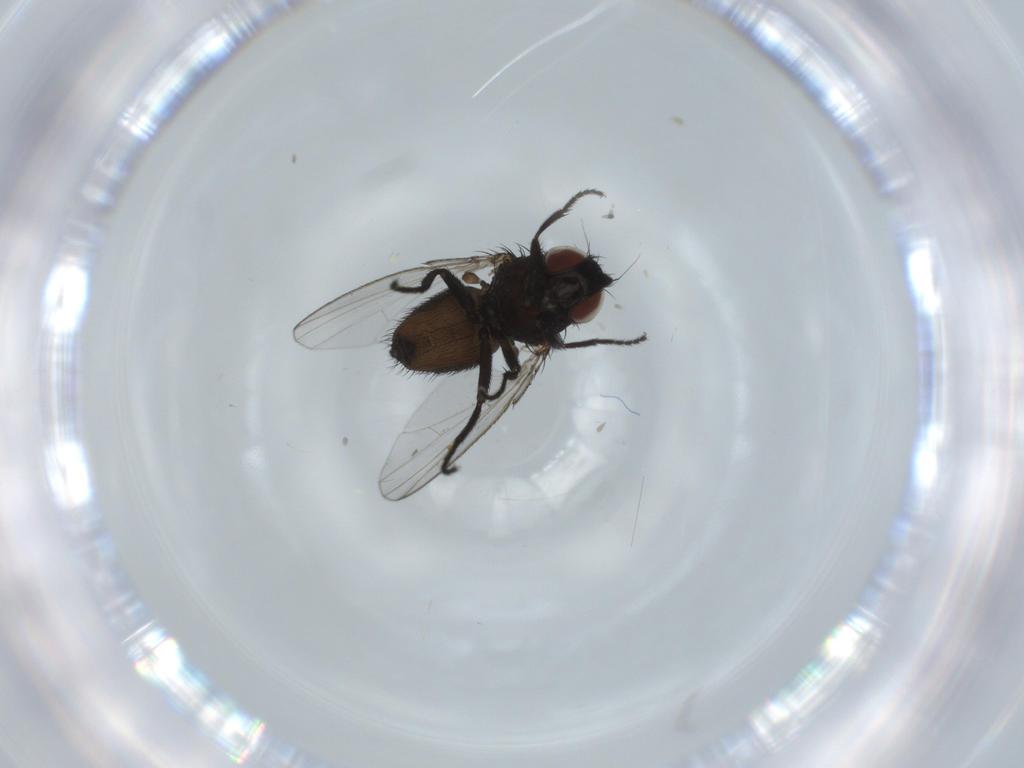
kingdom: Animalia
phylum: Arthropoda
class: Insecta
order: Diptera
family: Milichiidae
